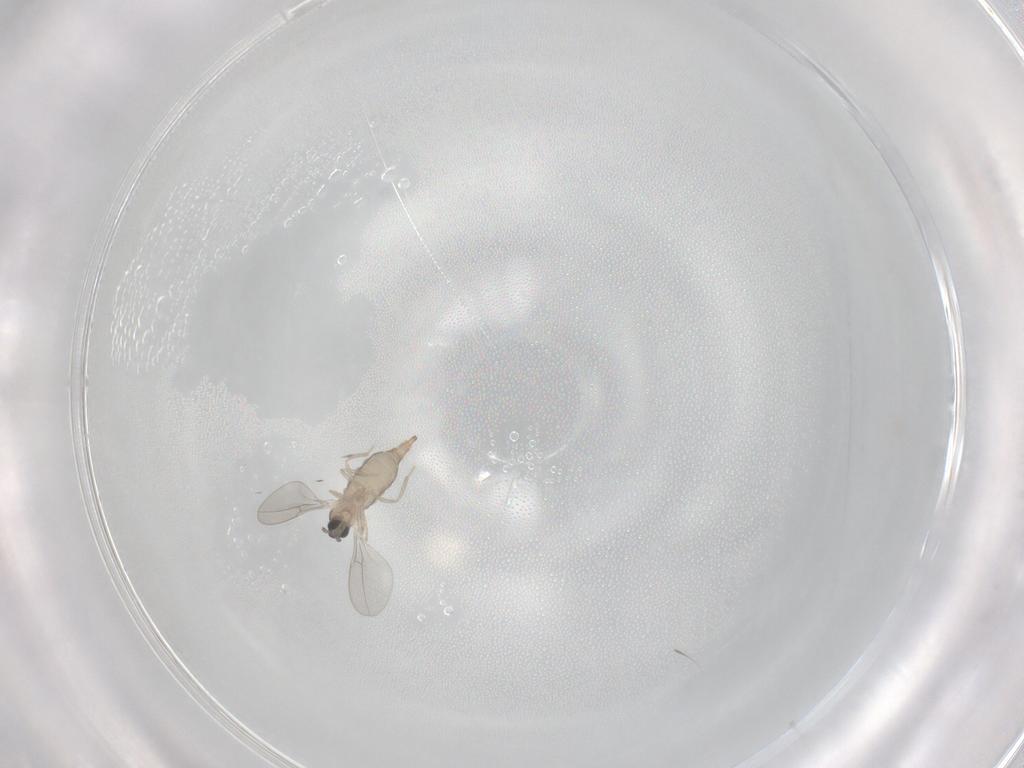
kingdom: Animalia
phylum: Arthropoda
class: Insecta
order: Diptera
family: Cecidomyiidae
